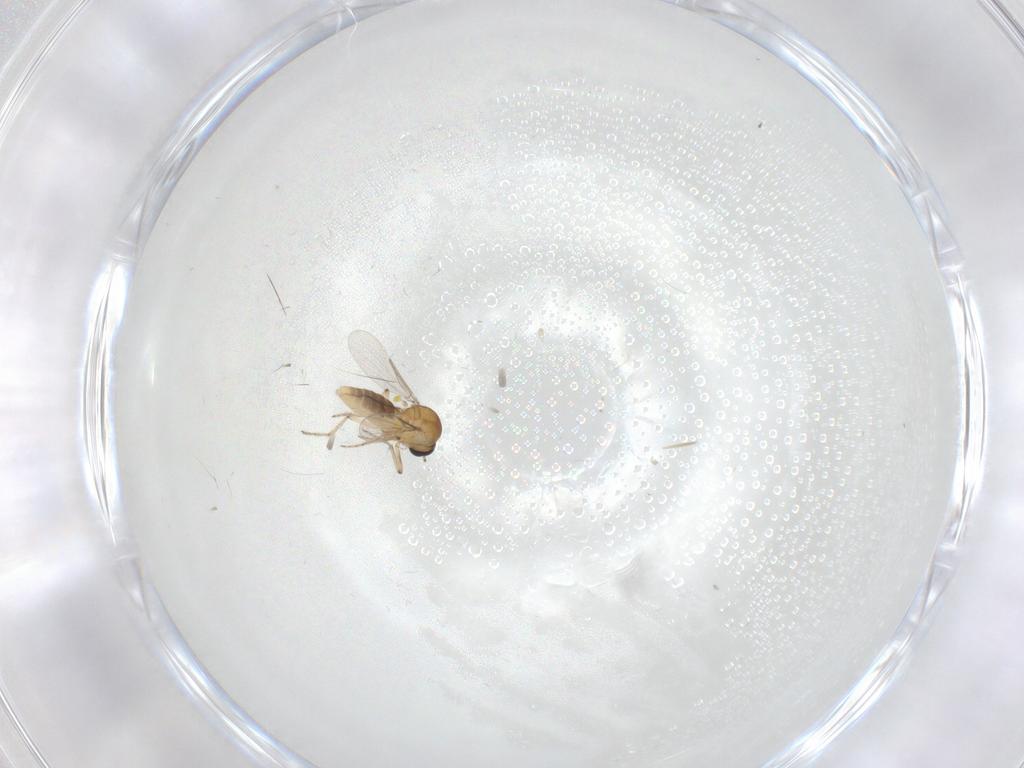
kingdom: Animalia
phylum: Arthropoda
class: Insecta
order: Diptera
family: Ceratopogonidae
